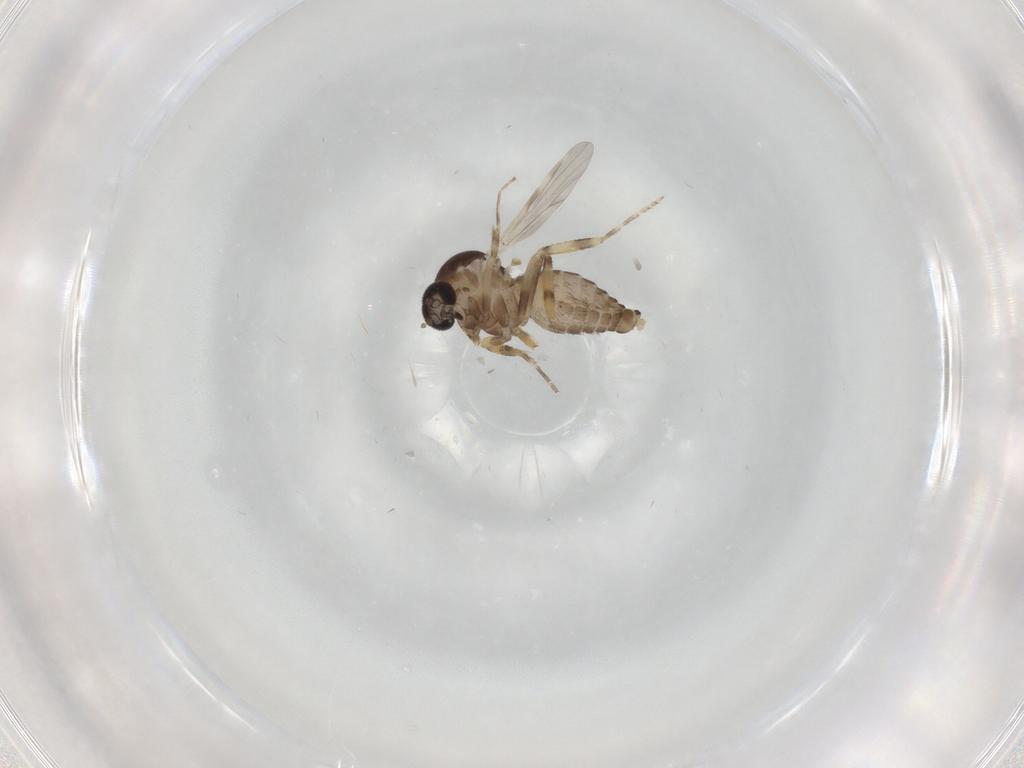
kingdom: Animalia
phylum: Arthropoda
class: Insecta
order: Diptera
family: Ceratopogonidae
